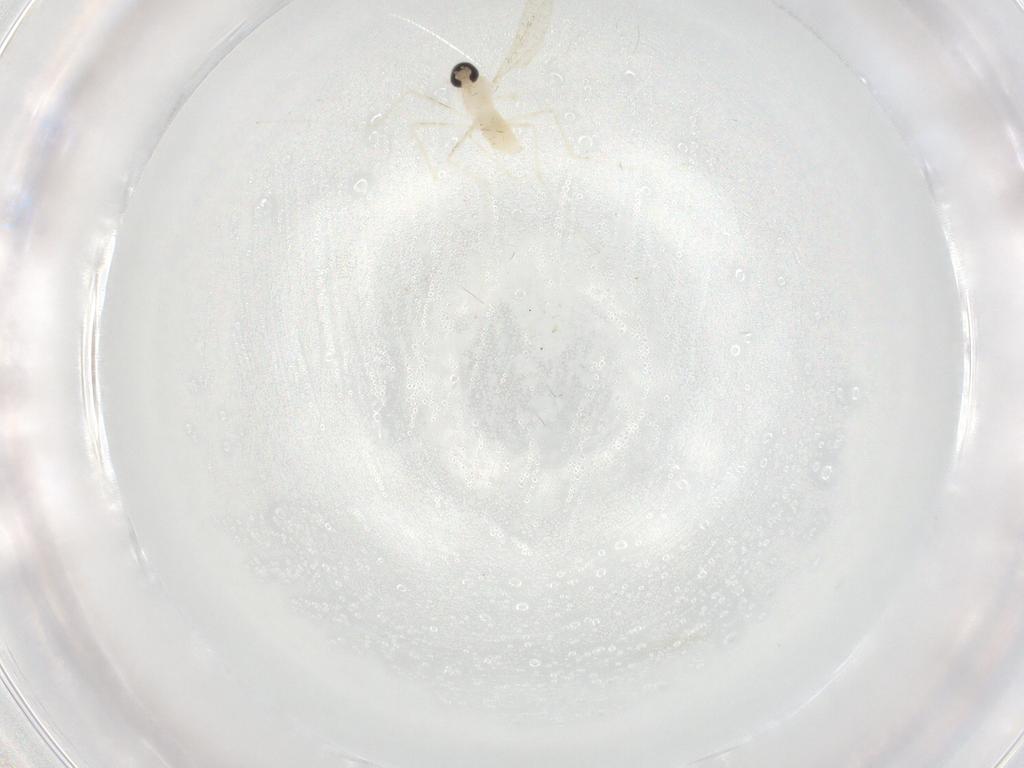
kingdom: Animalia
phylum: Arthropoda
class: Insecta
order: Diptera
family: Cecidomyiidae
